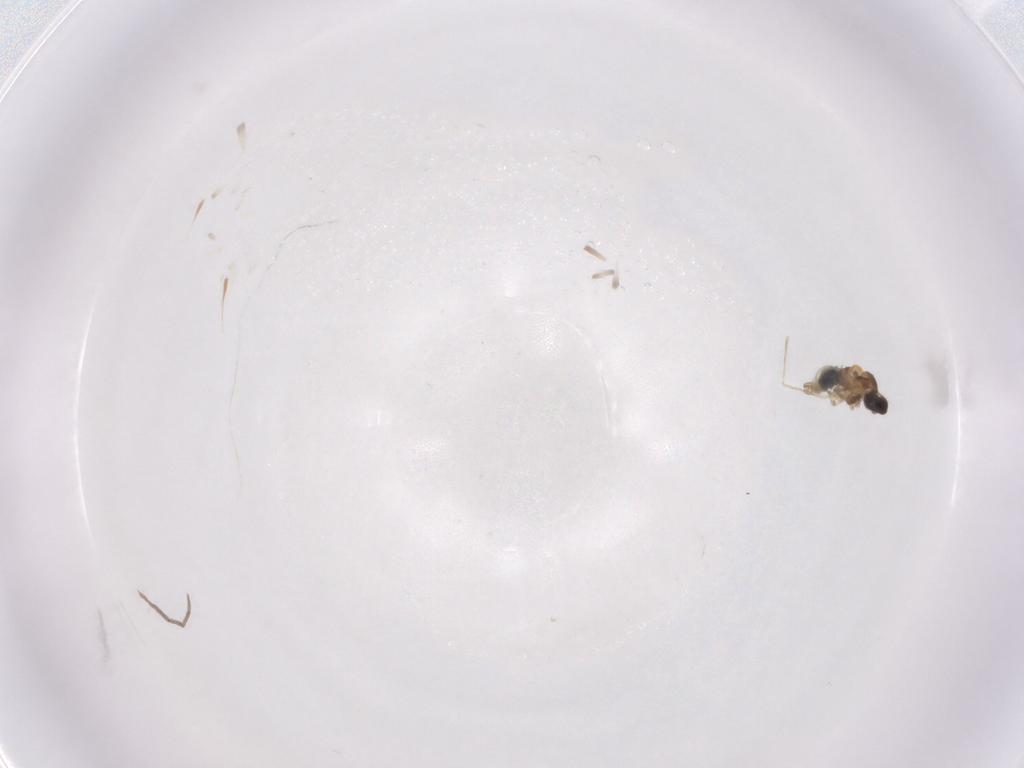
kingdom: Animalia
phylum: Arthropoda
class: Arachnida
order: Sarcoptiformes
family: Galumnidae
